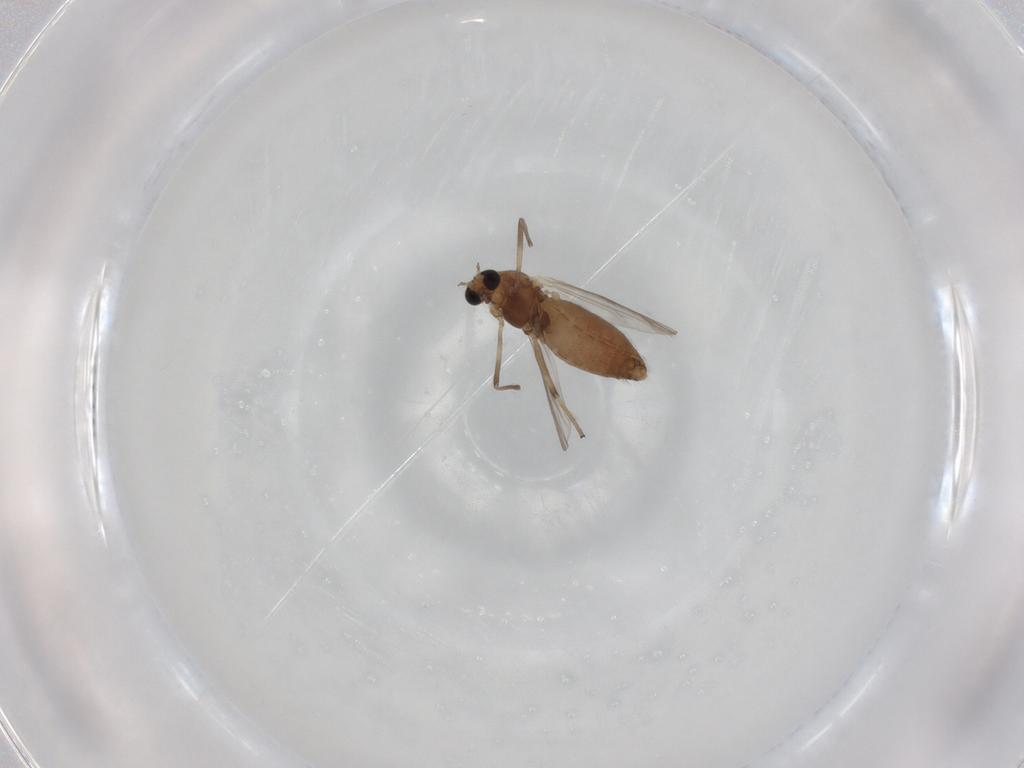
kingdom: Animalia
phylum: Arthropoda
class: Insecta
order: Diptera
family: Chironomidae
